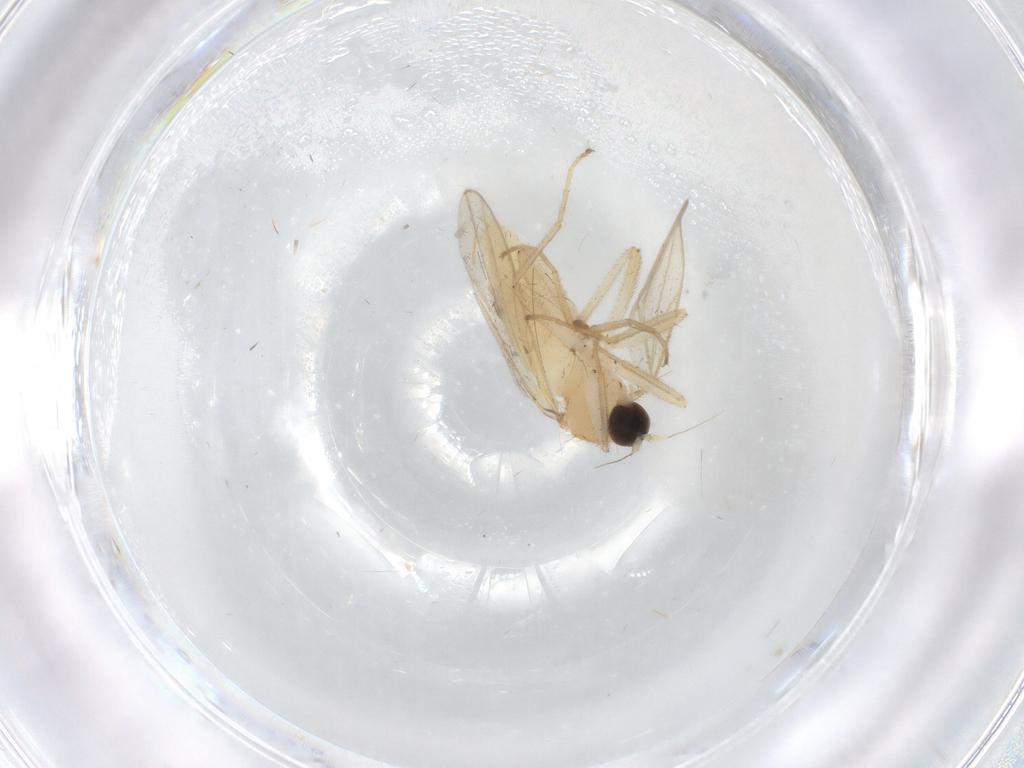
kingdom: Animalia
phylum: Arthropoda
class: Insecta
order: Diptera
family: Hybotidae
